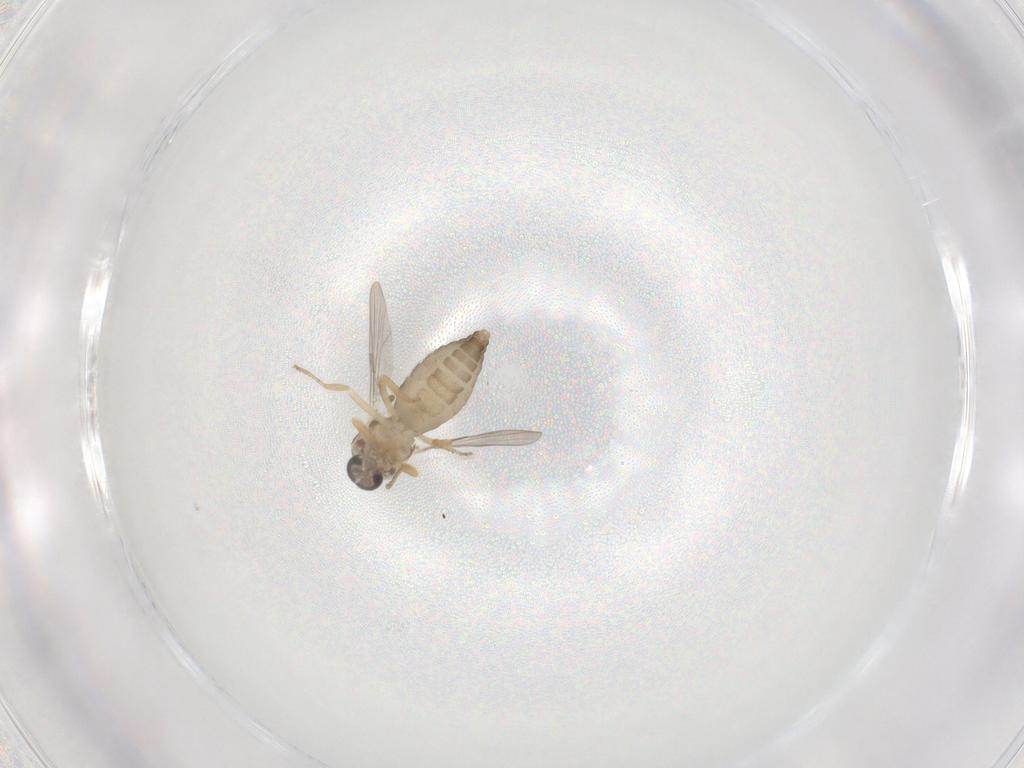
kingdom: Animalia
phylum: Arthropoda
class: Insecta
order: Diptera
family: Ceratopogonidae
